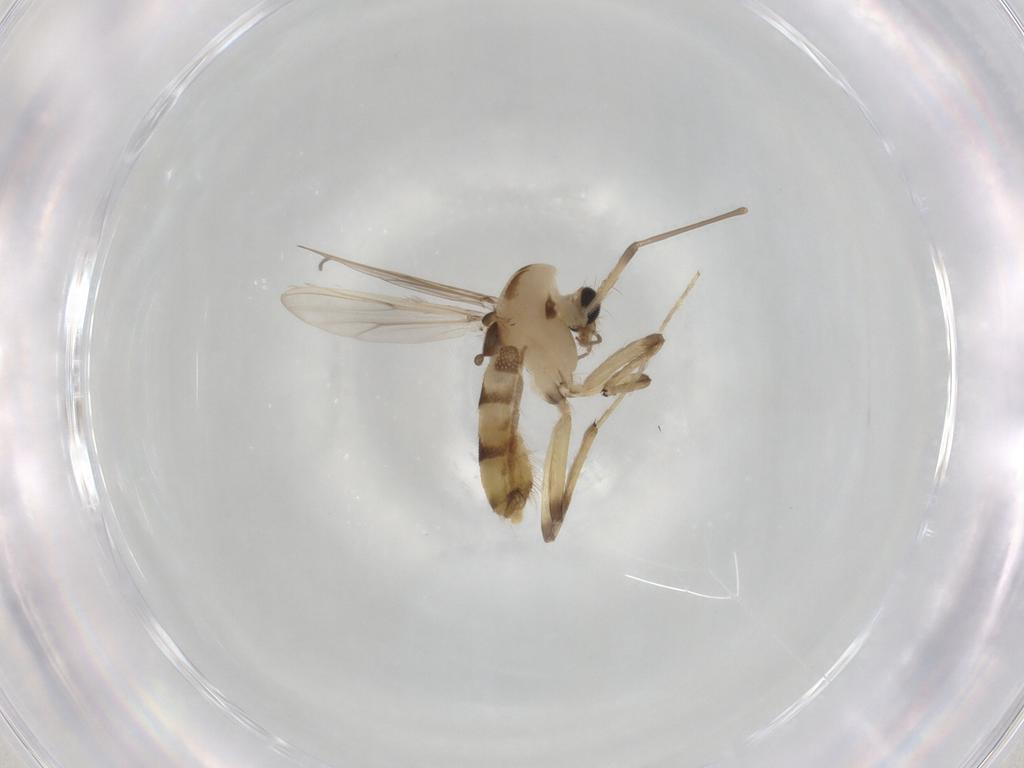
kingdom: Animalia
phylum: Arthropoda
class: Insecta
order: Diptera
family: Chironomidae
